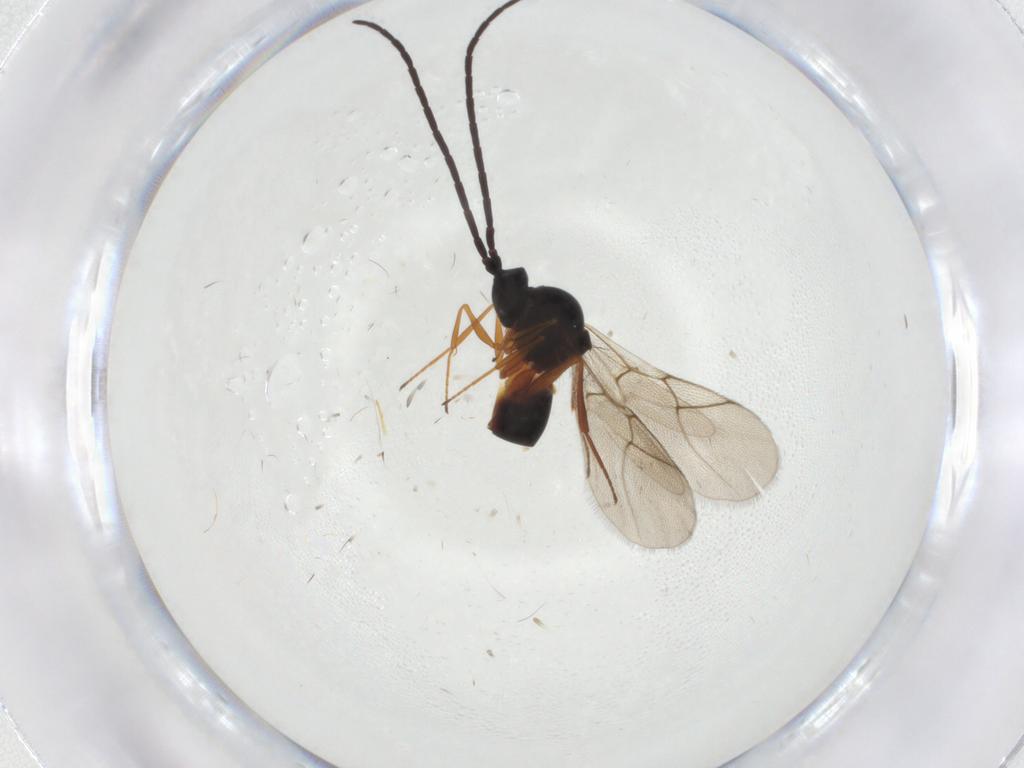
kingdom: Animalia
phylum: Arthropoda
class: Insecta
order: Hymenoptera
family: Figitidae
